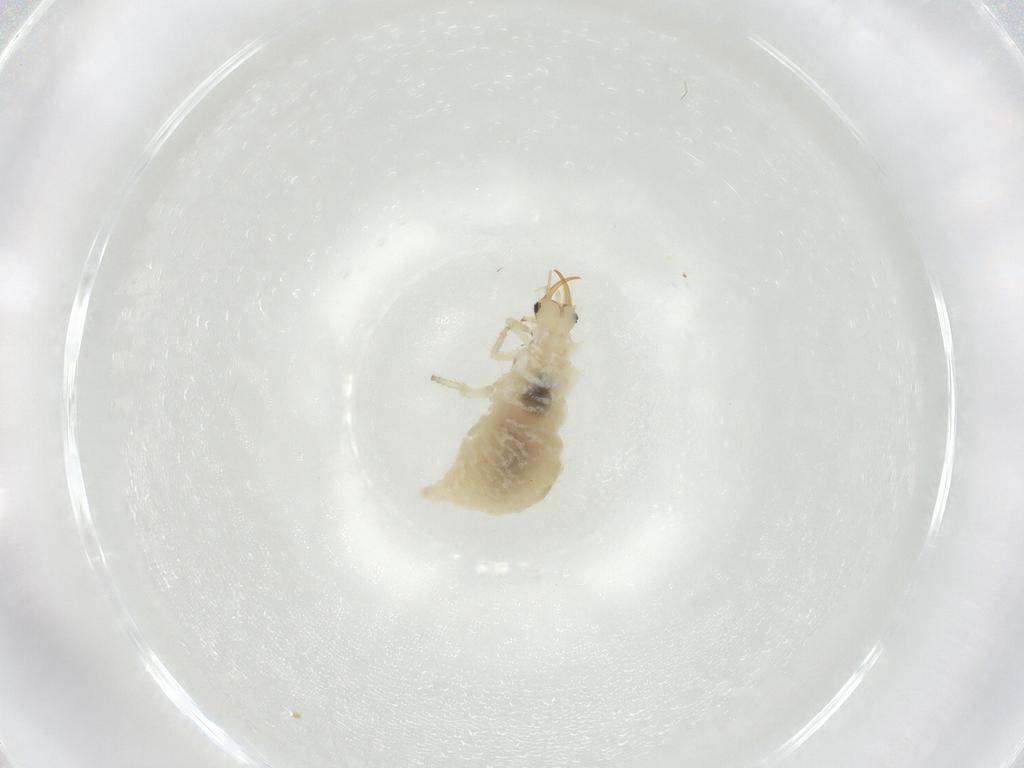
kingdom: Animalia
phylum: Arthropoda
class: Insecta
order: Neuroptera
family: Chrysopidae
